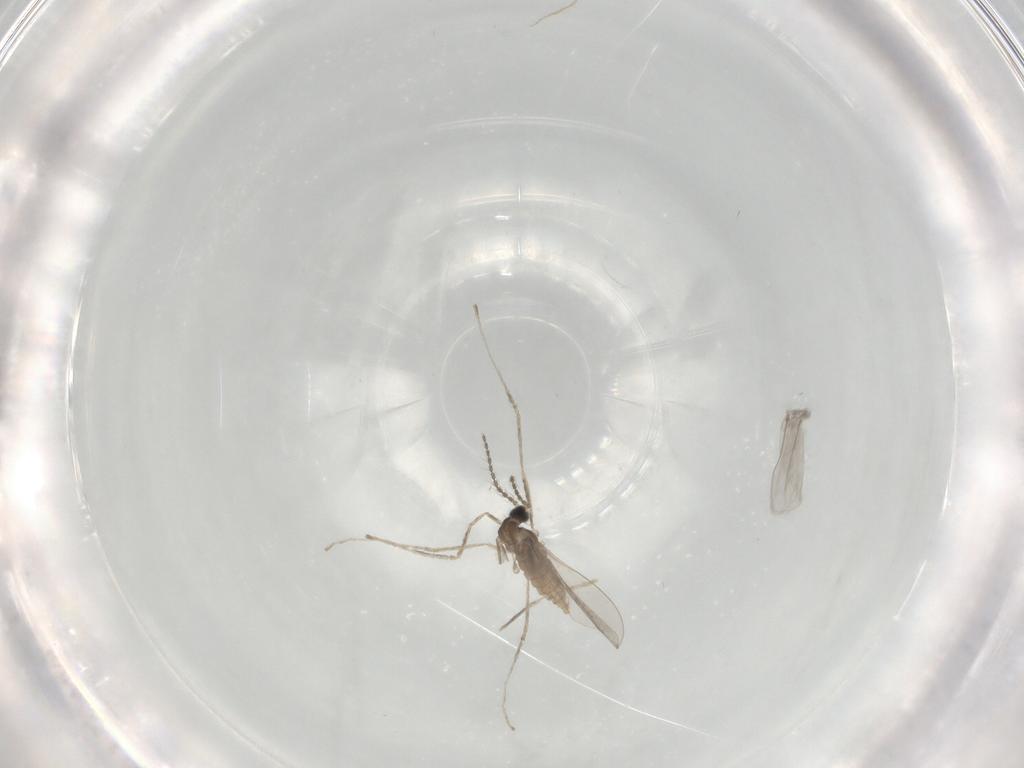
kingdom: Animalia
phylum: Arthropoda
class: Insecta
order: Diptera
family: Cecidomyiidae
